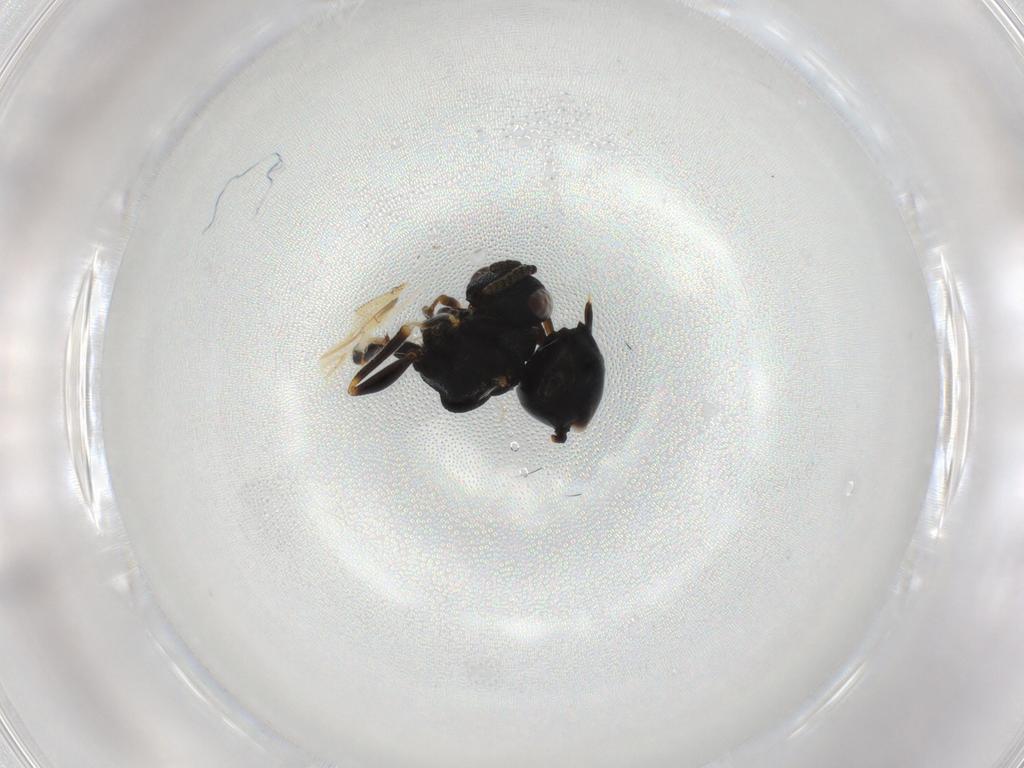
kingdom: Animalia
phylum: Arthropoda
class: Insecta
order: Hymenoptera
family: Eurytomidae
